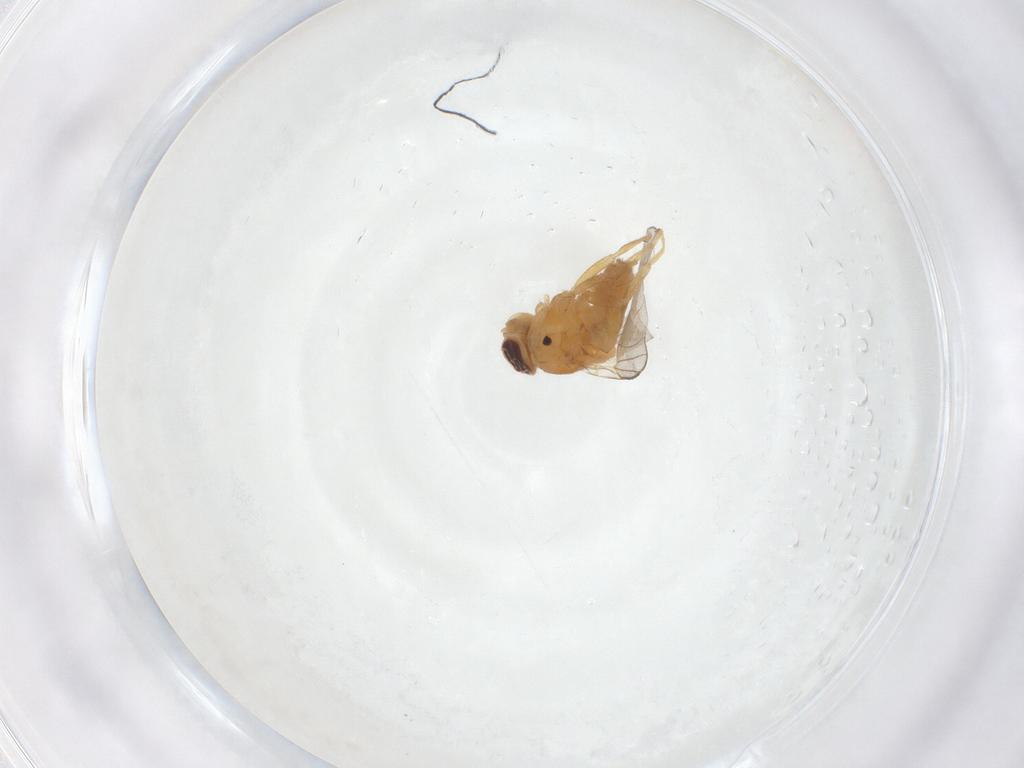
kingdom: Animalia
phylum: Arthropoda
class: Insecta
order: Diptera
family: Chloropidae
